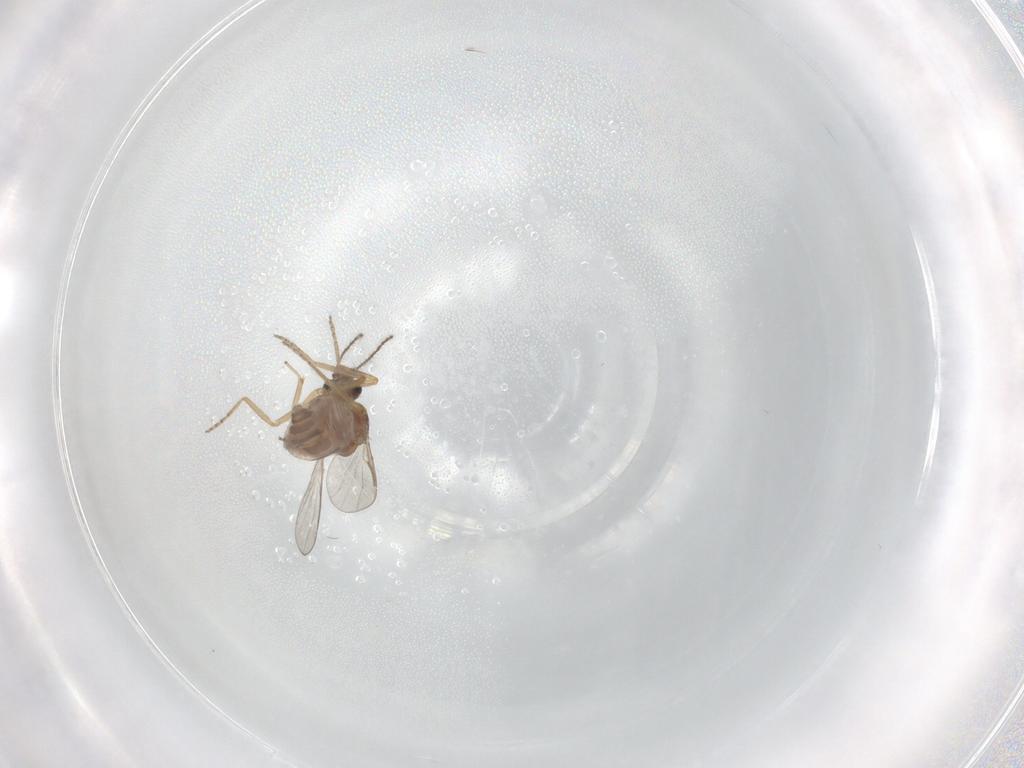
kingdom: Animalia
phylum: Arthropoda
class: Insecta
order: Diptera
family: Ceratopogonidae
